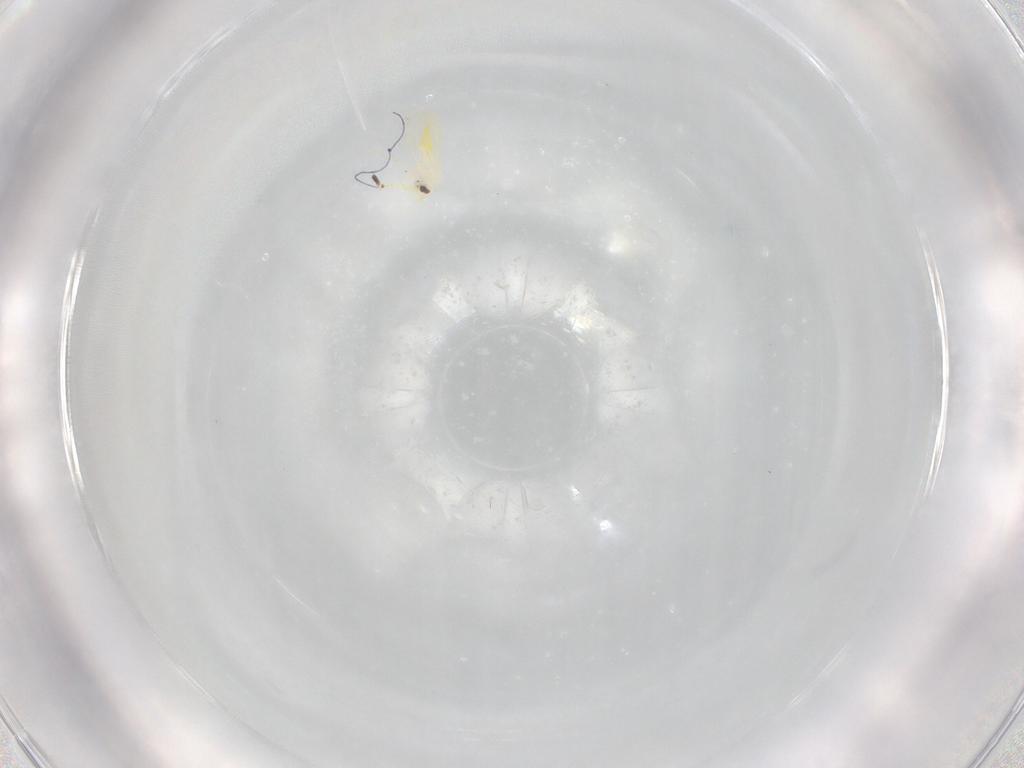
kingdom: Animalia
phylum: Arthropoda
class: Insecta
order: Hemiptera
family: Aleyrodidae
